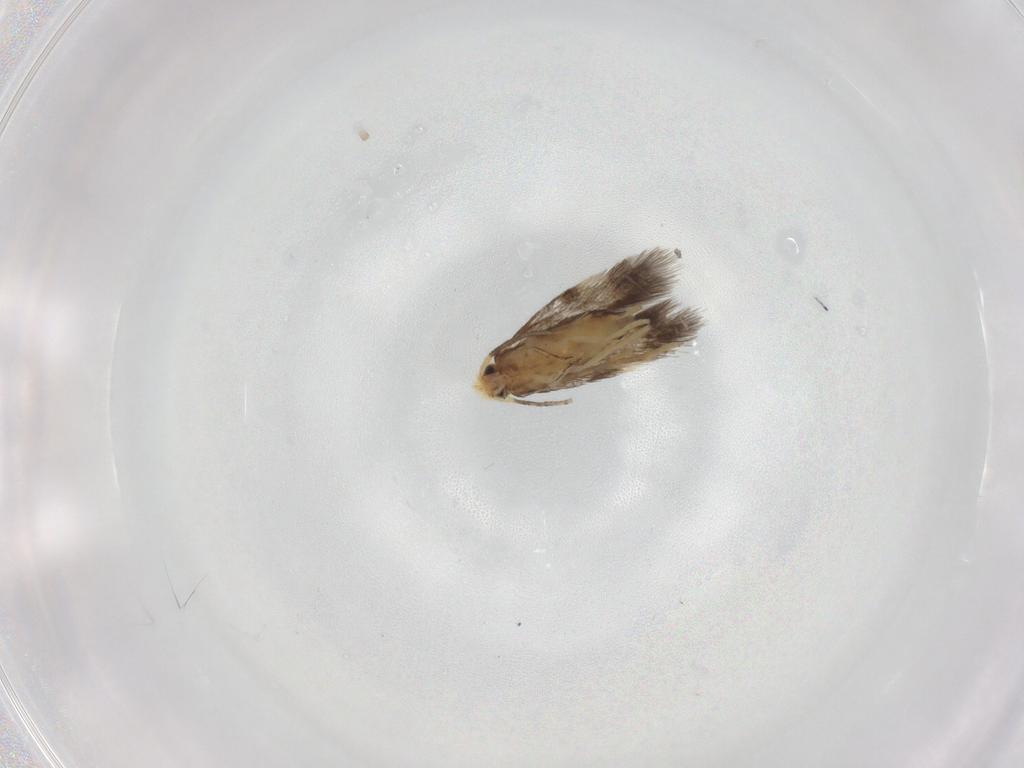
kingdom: Animalia
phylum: Arthropoda
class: Insecta
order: Lepidoptera
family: Nepticulidae
